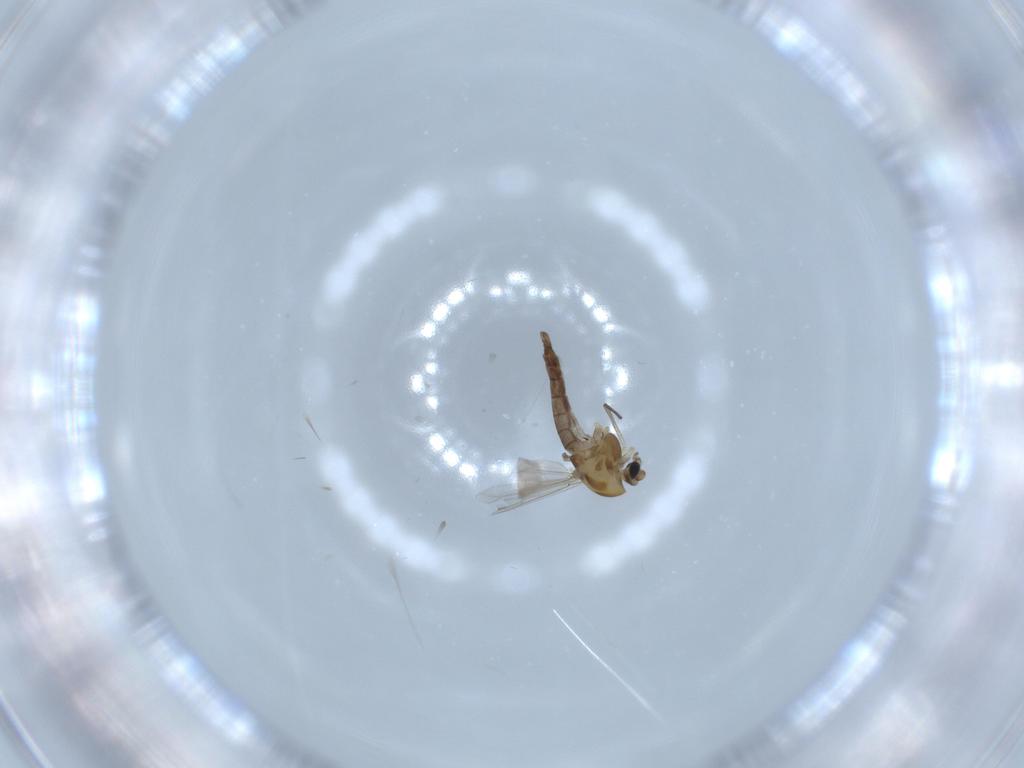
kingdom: Animalia
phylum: Arthropoda
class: Insecta
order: Diptera
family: Chironomidae
